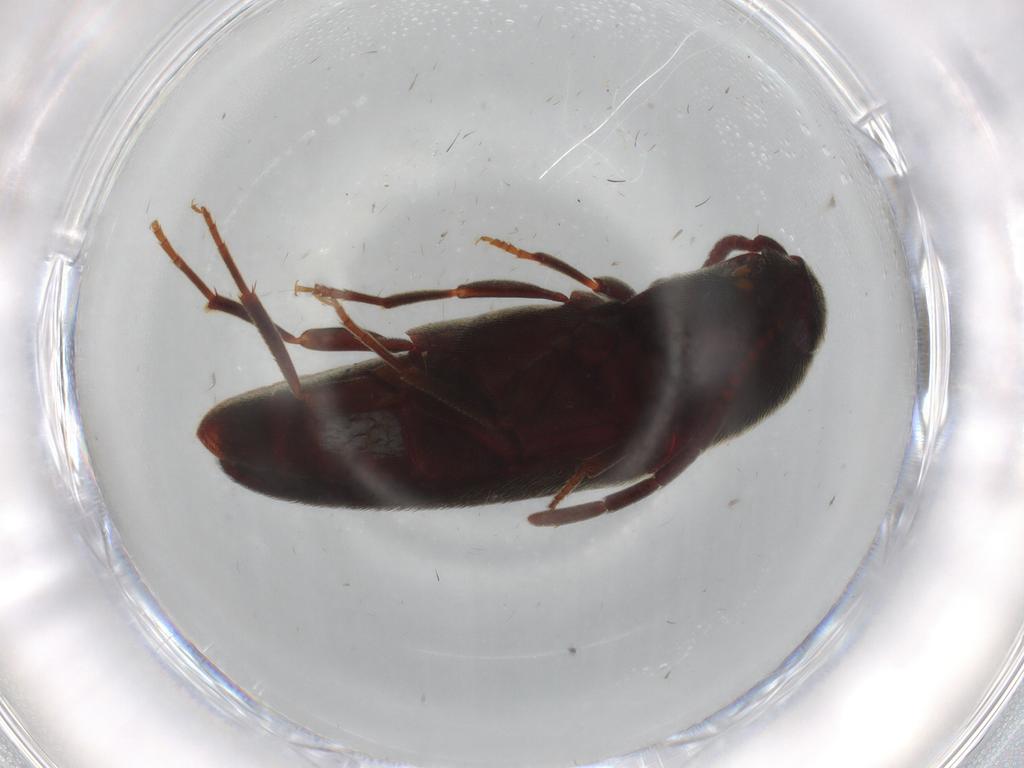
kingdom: Animalia
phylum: Arthropoda
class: Insecta
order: Coleoptera
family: Eucnemidae
